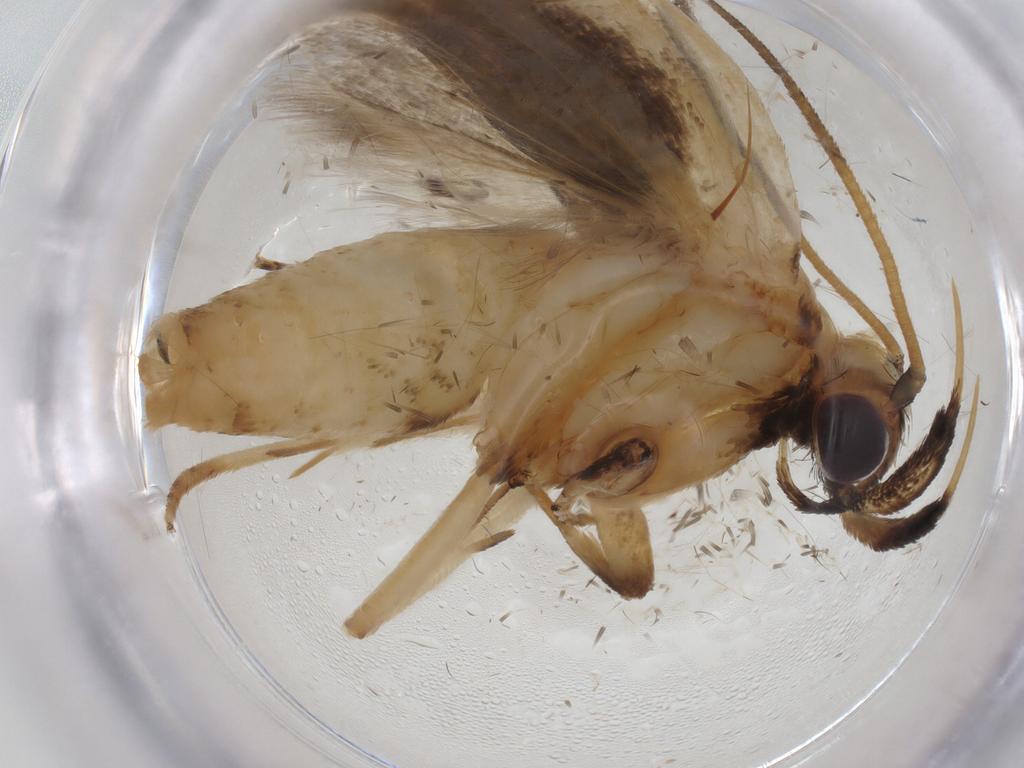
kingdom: Animalia
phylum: Arthropoda
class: Insecta
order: Lepidoptera
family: Gelechiidae
